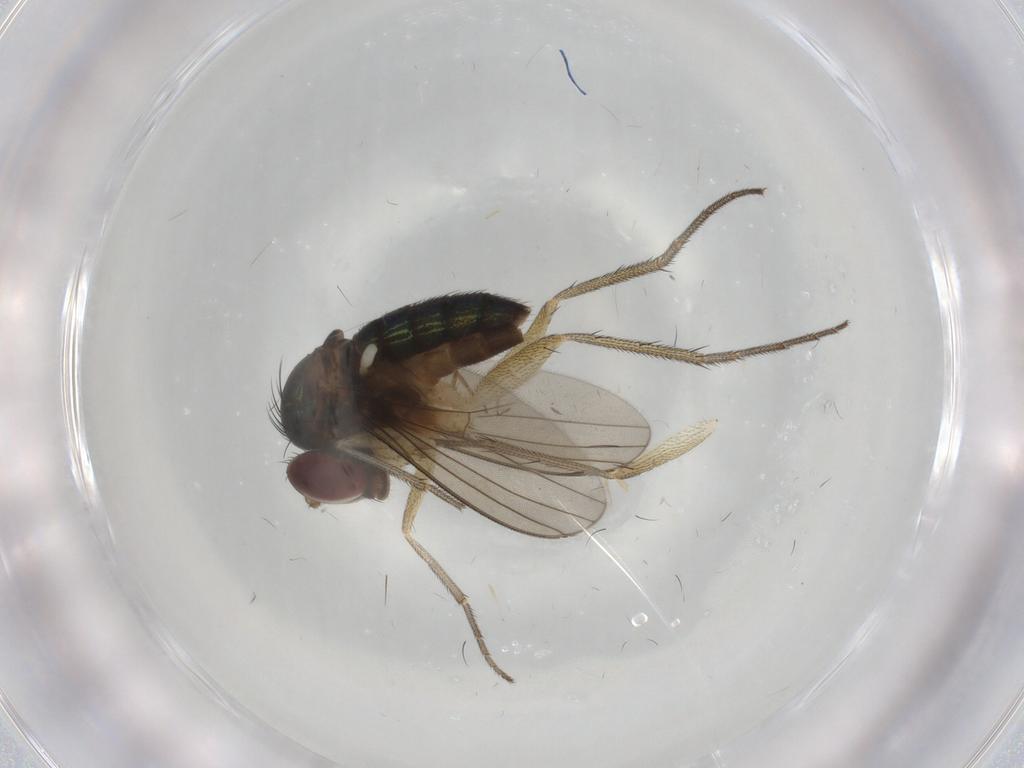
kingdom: Animalia
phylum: Arthropoda
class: Insecta
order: Diptera
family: Dolichopodidae
